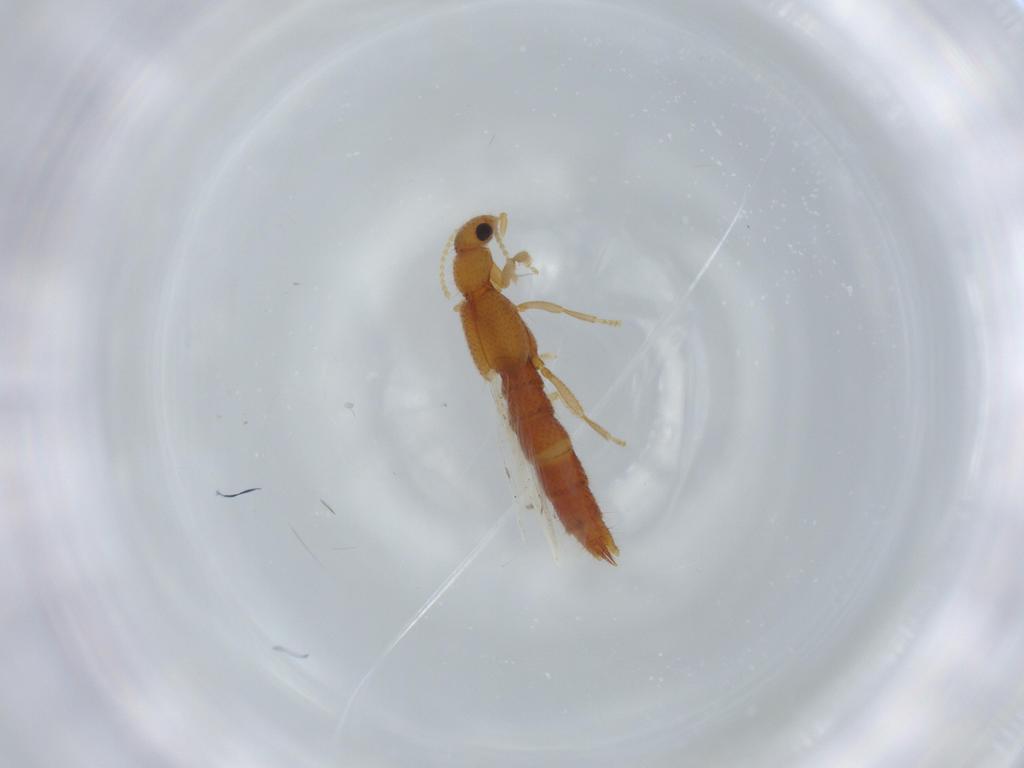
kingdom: Animalia
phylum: Arthropoda
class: Insecta
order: Coleoptera
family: Staphylinidae
